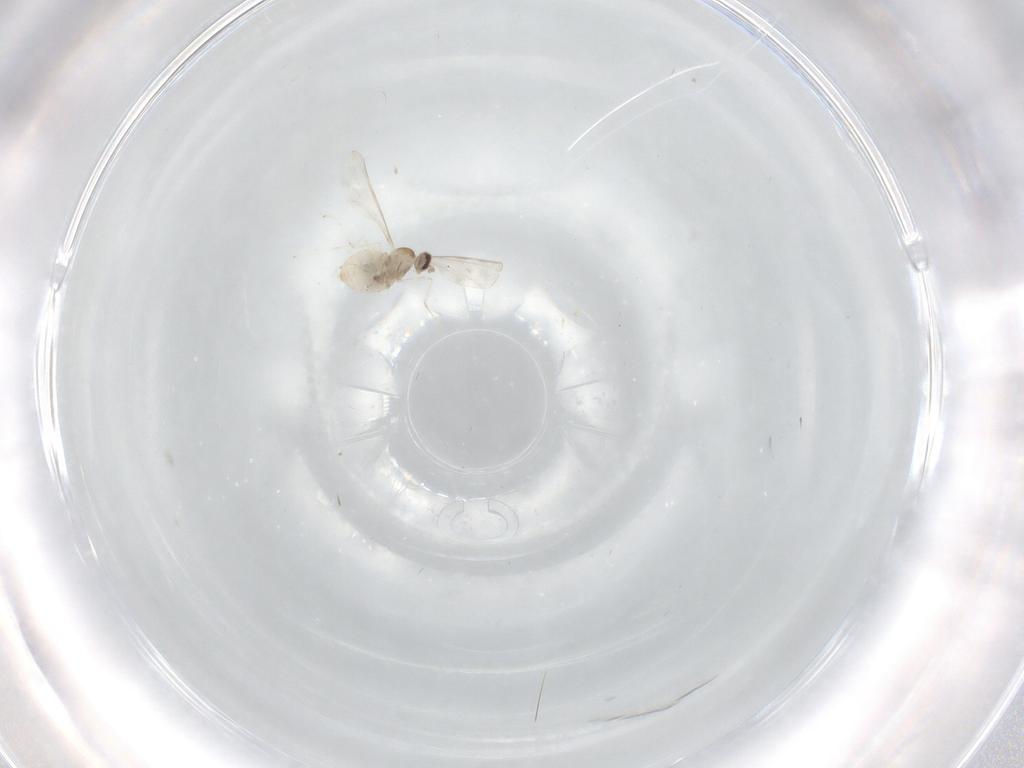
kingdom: Animalia
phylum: Arthropoda
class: Insecta
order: Diptera
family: Cecidomyiidae
